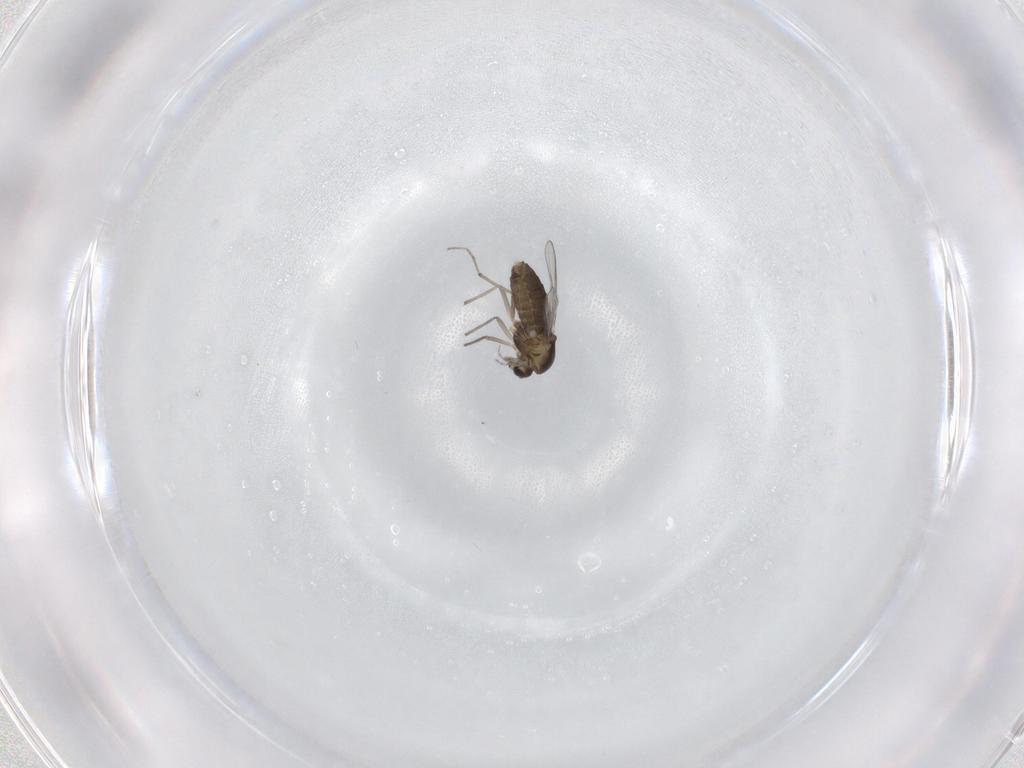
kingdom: Animalia
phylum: Arthropoda
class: Insecta
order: Diptera
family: Chironomidae
